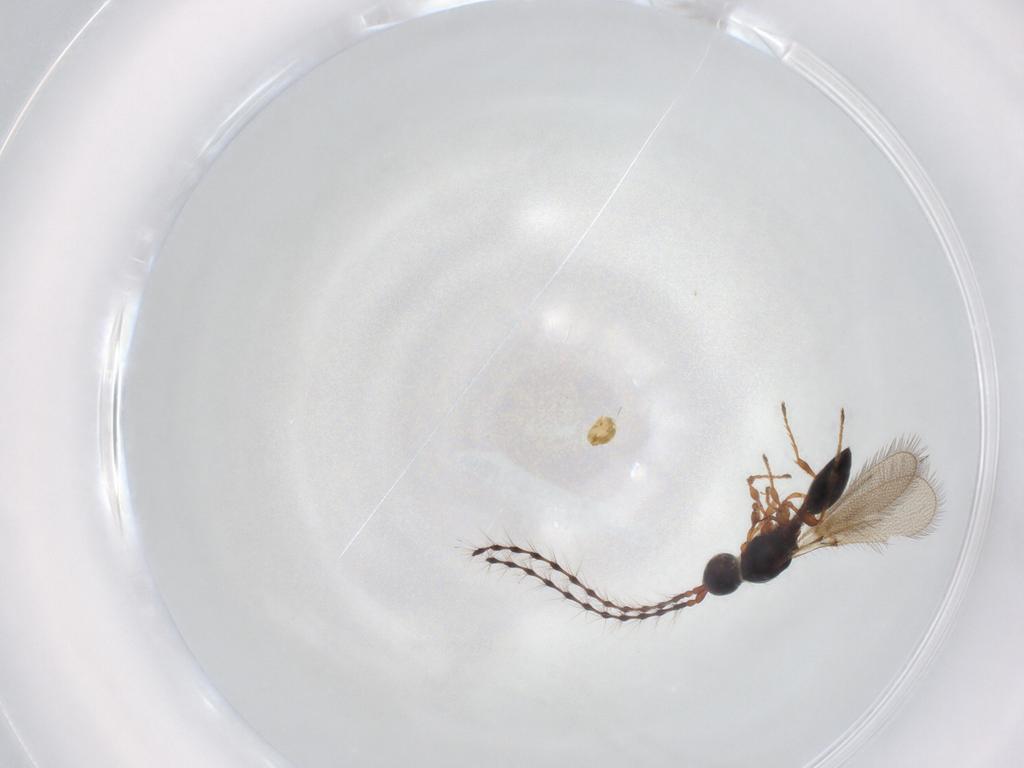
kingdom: Animalia
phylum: Arthropoda
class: Insecta
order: Hymenoptera
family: Diapriidae
